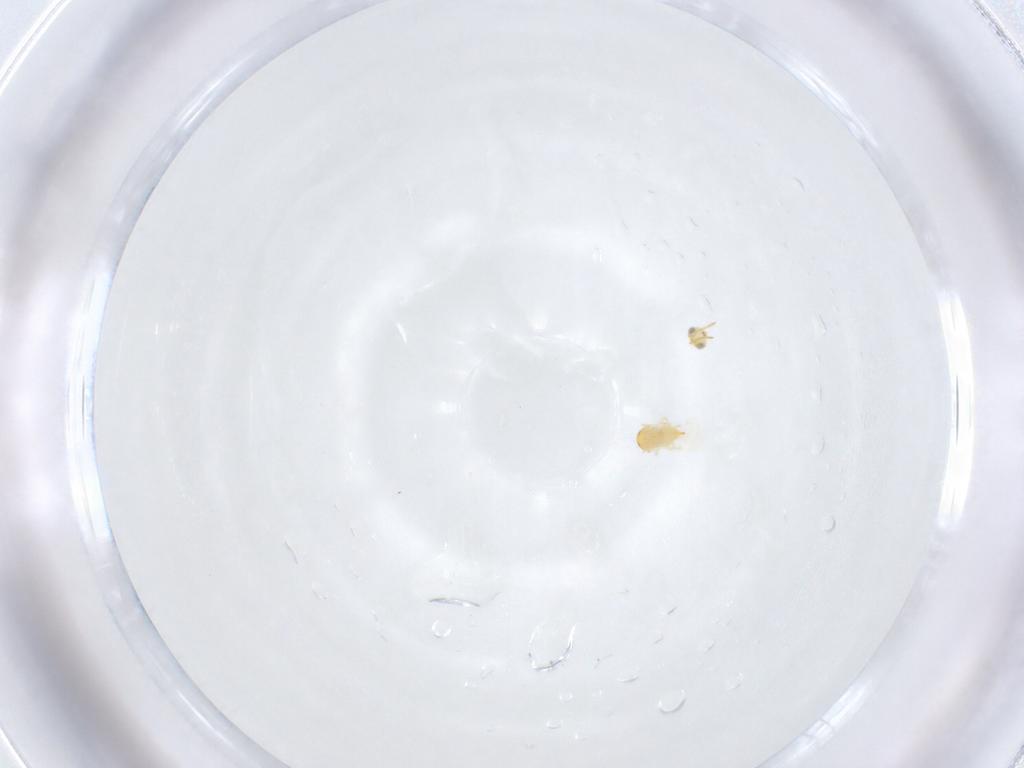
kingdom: Animalia
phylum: Arthropoda
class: Insecta
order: Hymenoptera
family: Aphelinidae
